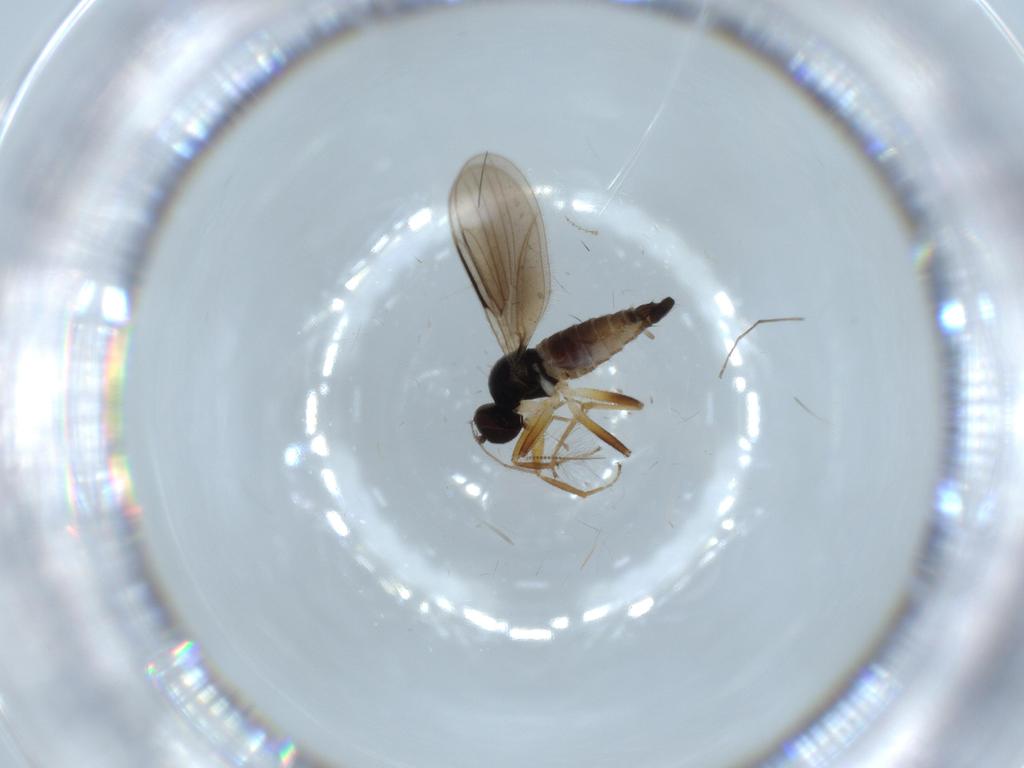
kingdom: Animalia
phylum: Arthropoda
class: Insecta
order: Diptera
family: Hybotidae
